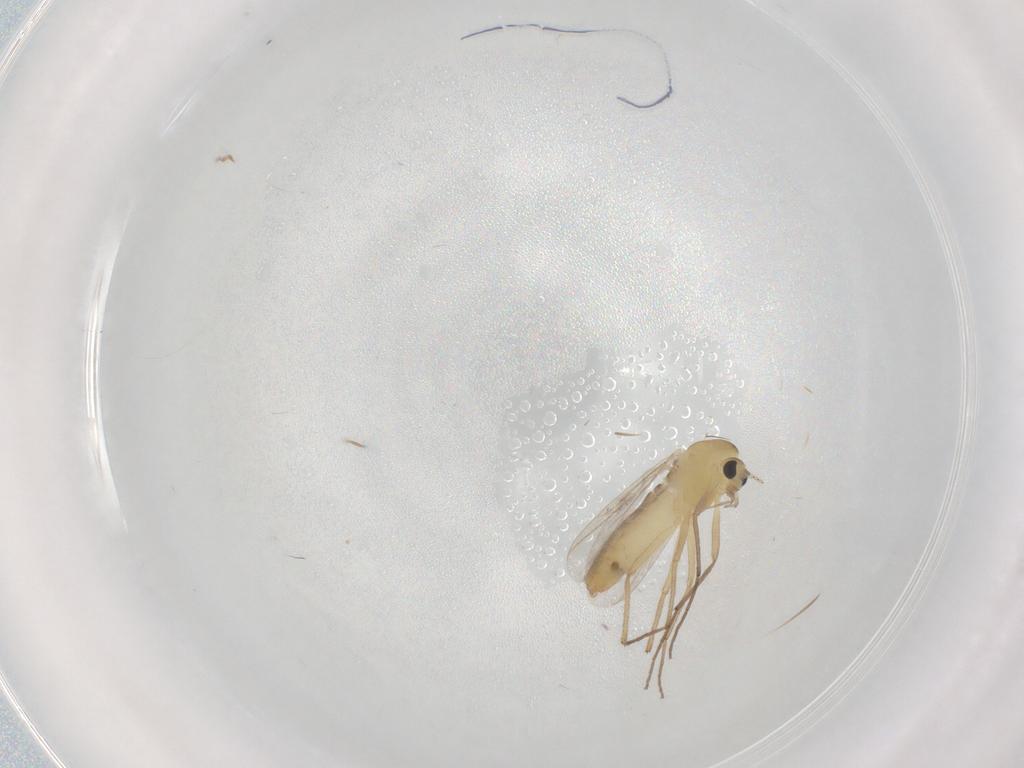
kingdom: Animalia
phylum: Arthropoda
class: Insecta
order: Diptera
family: Chironomidae
